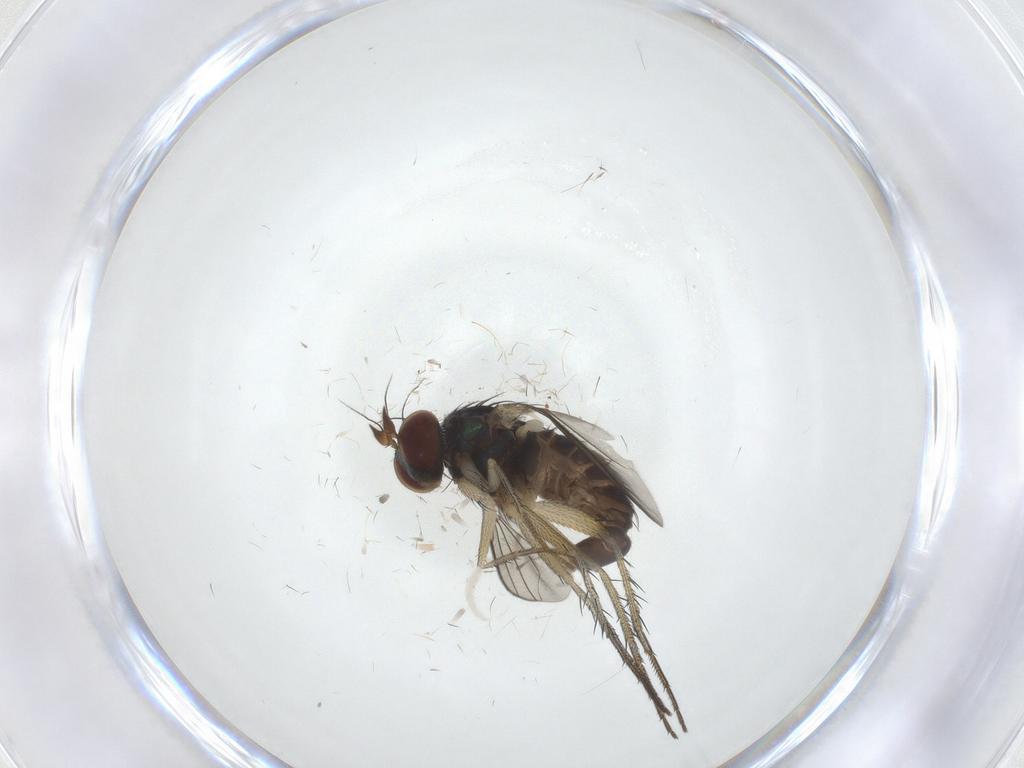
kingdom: Animalia
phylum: Arthropoda
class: Insecta
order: Diptera
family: Dolichopodidae
